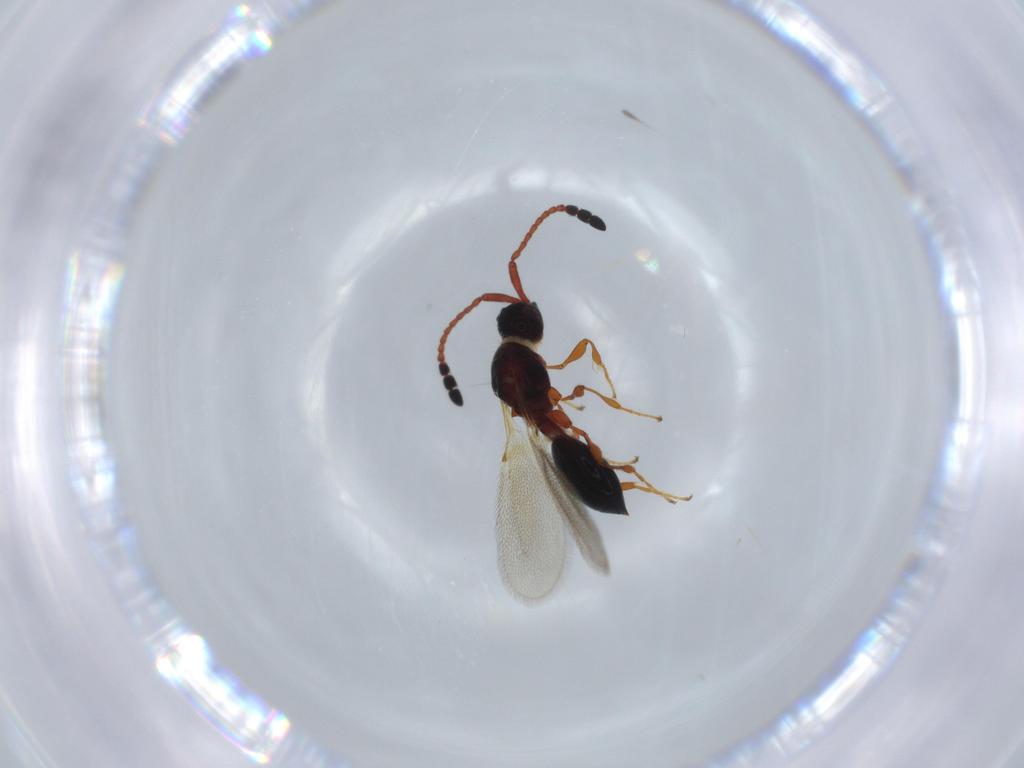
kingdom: Animalia
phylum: Arthropoda
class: Insecta
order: Hymenoptera
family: Diapriidae
